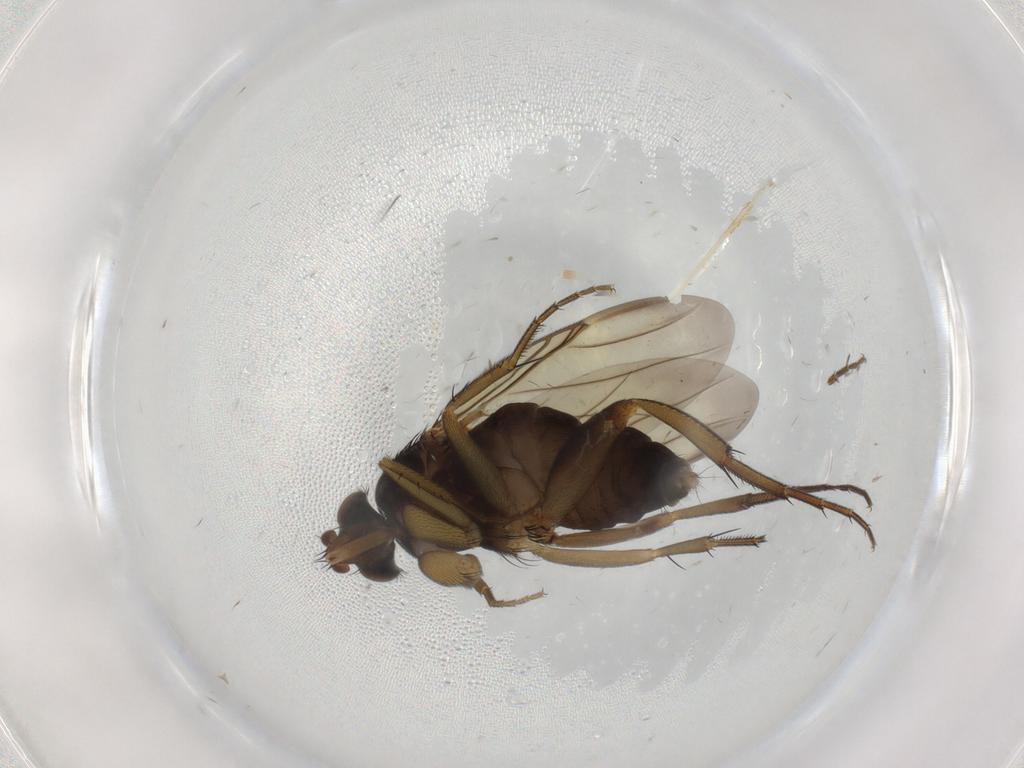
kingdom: Animalia
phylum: Arthropoda
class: Insecta
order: Diptera
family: Phoridae
